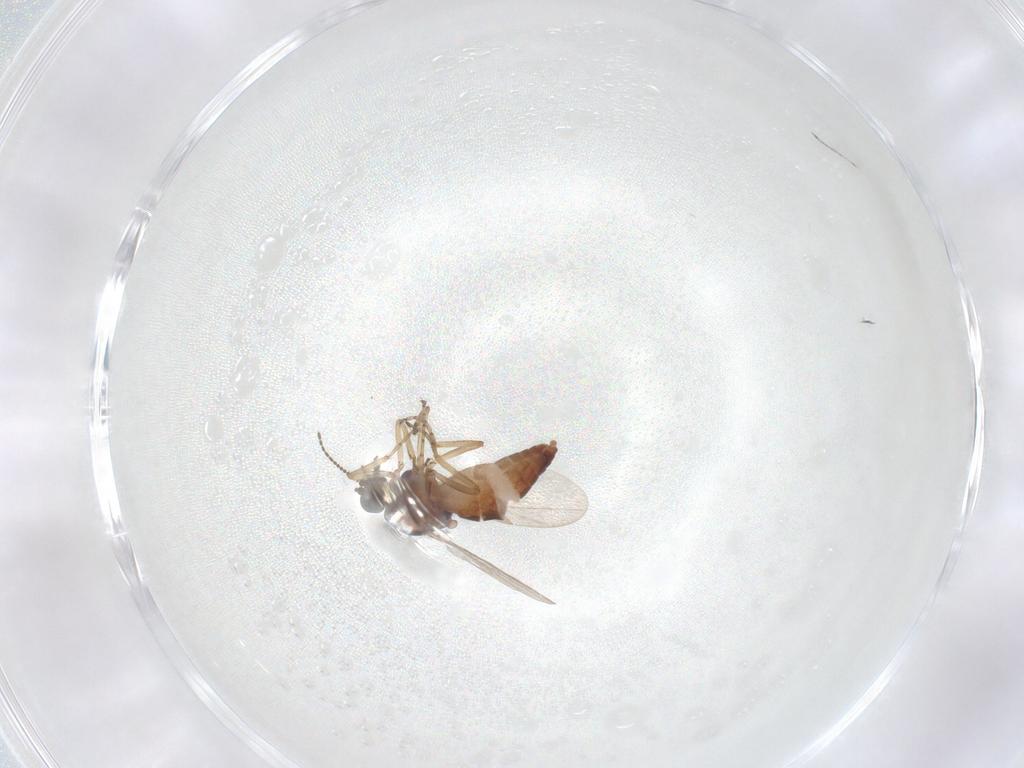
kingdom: Animalia
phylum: Arthropoda
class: Insecta
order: Diptera
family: Ceratopogonidae
